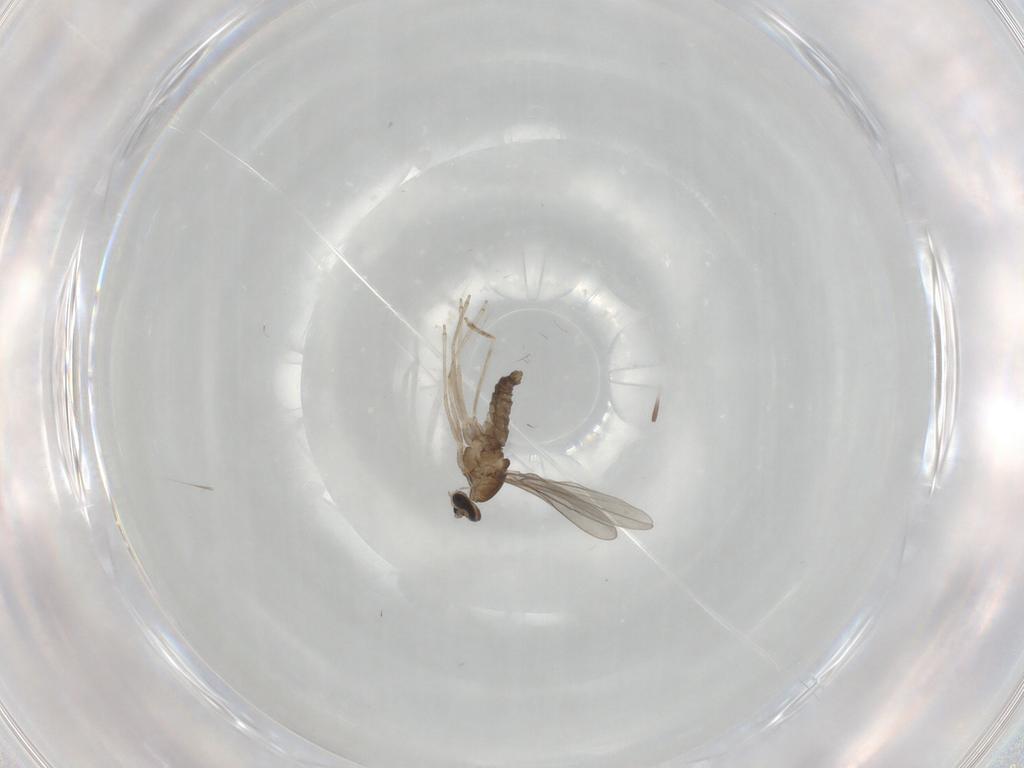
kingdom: Animalia
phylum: Arthropoda
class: Insecta
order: Diptera
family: Cecidomyiidae
